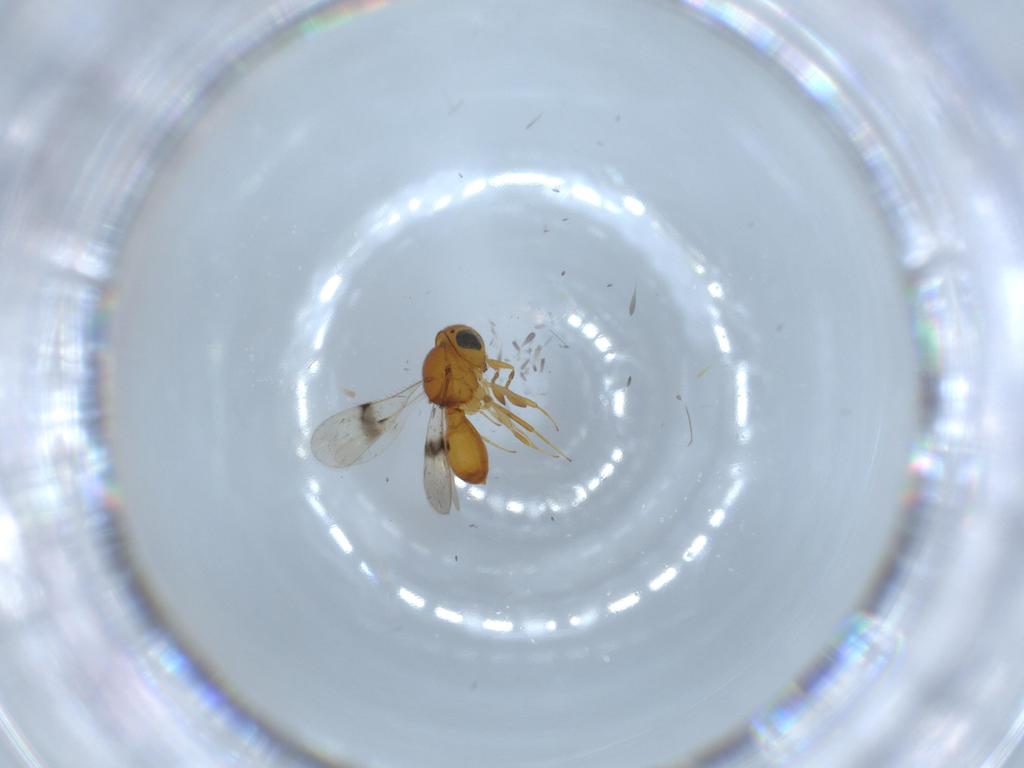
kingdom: Animalia
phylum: Arthropoda
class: Insecta
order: Hymenoptera
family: Scelionidae
